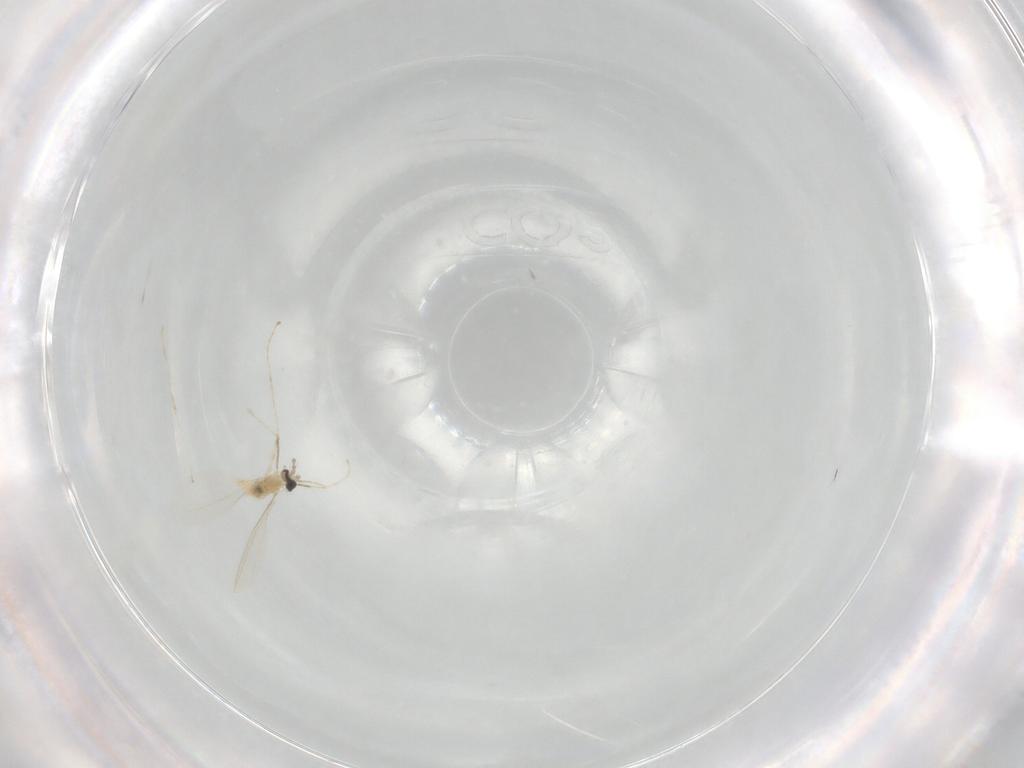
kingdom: Animalia
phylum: Arthropoda
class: Insecta
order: Diptera
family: Cecidomyiidae
